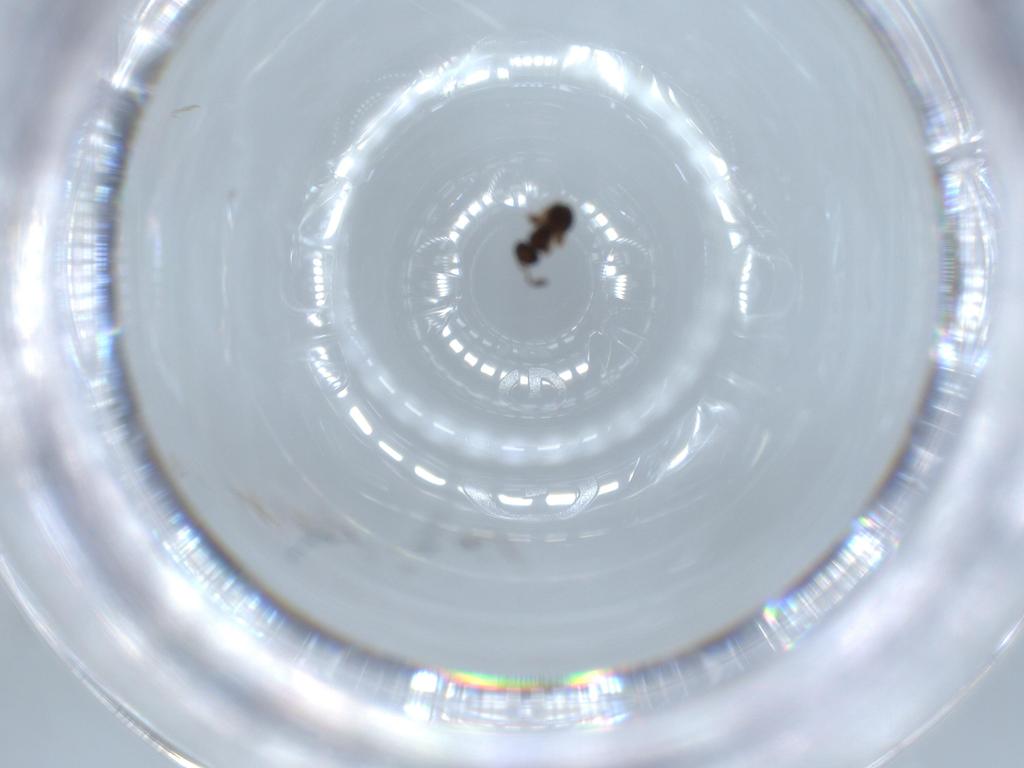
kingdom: Animalia
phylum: Arthropoda
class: Insecta
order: Hymenoptera
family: Scelionidae
